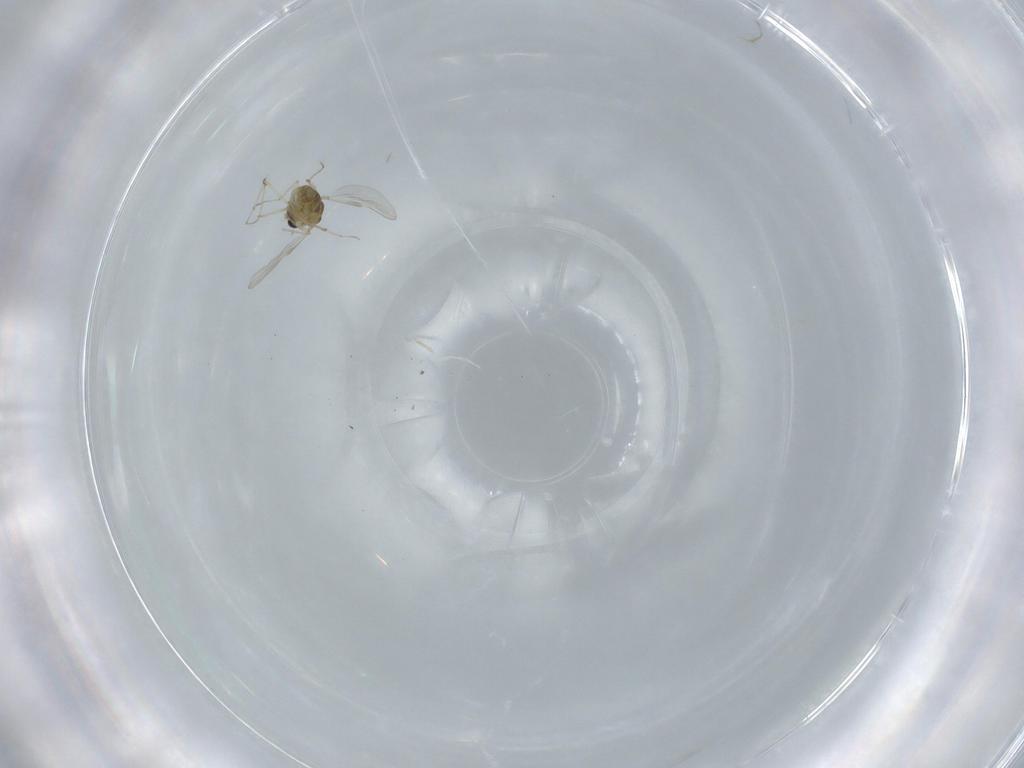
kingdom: Animalia
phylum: Arthropoda
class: Insecta
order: Diptera
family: Chironomidae
